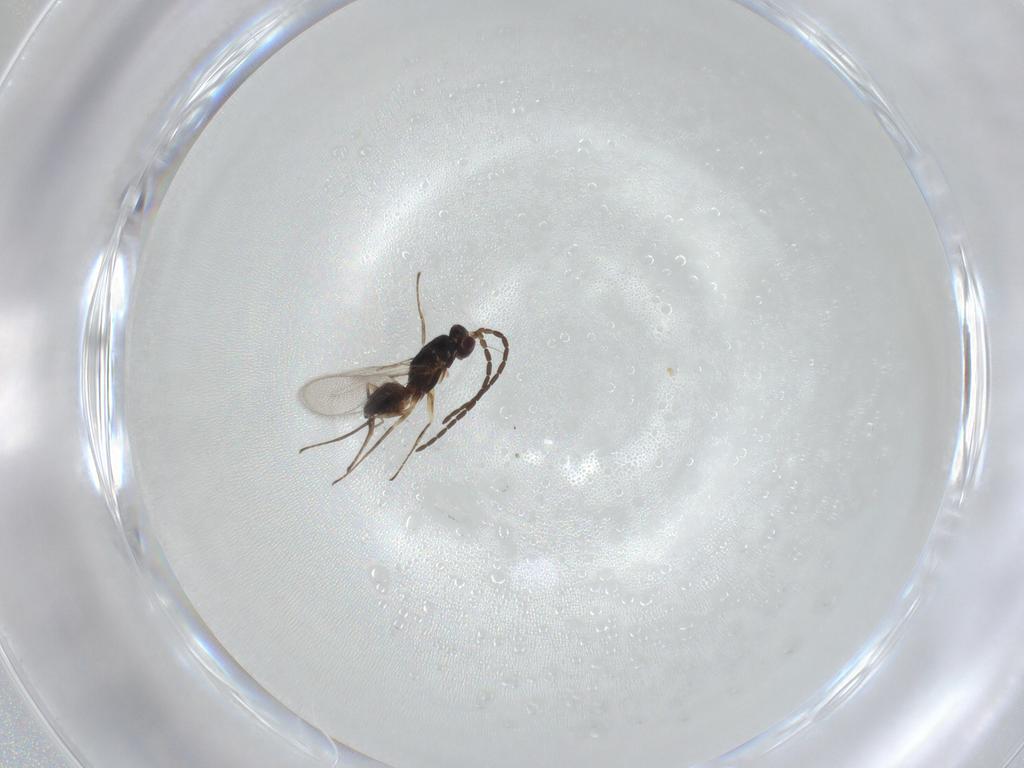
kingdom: Animalia
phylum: Arthropoda
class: Insecta
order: Hymenoptera
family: Mymaridae
